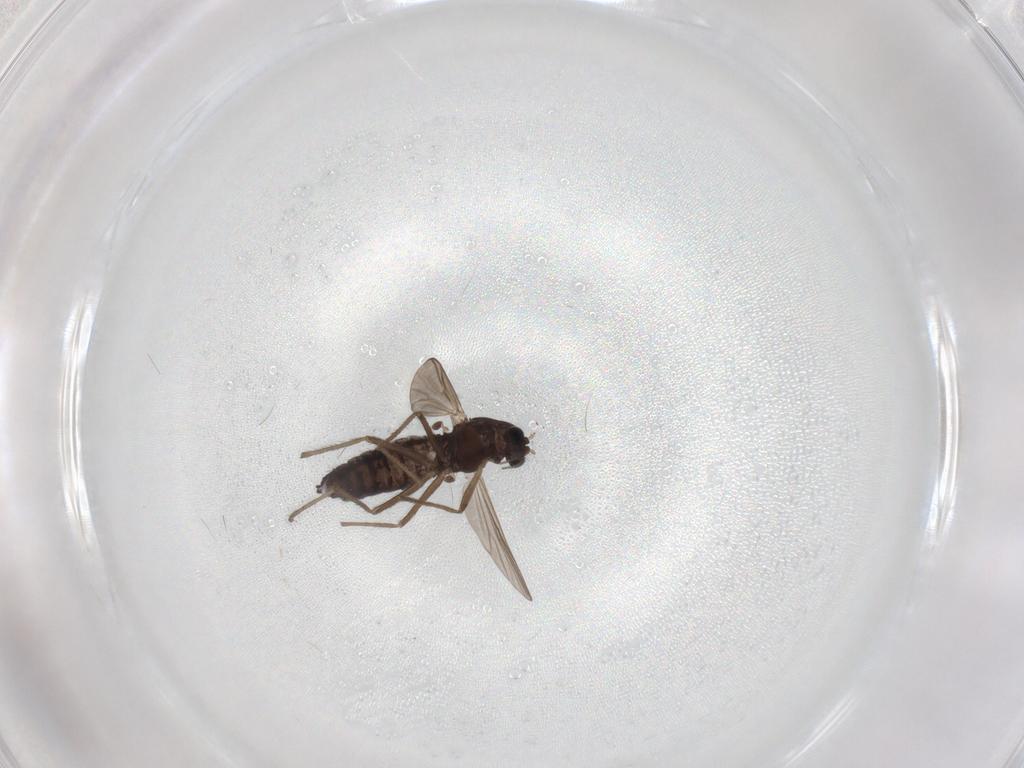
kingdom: Animalia
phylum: Arthropoda
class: Insecta
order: Diptera
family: Chironomidae
